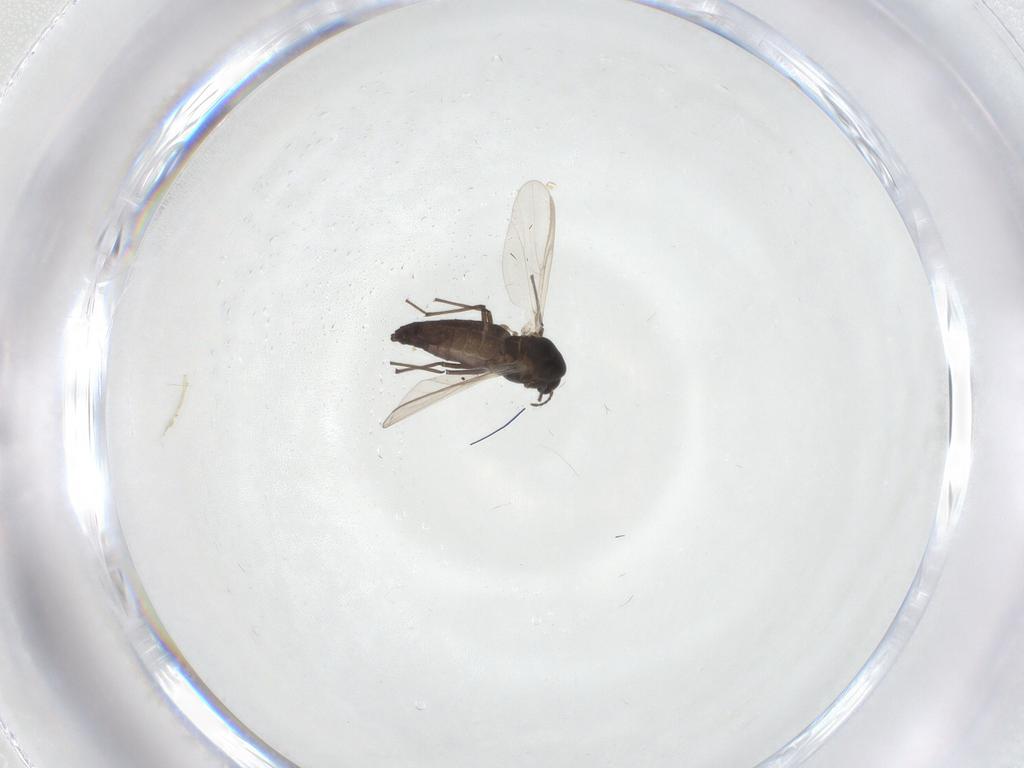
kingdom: Animalia
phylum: Arthropoda
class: Insecta
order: Diptera
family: Chironomidae
